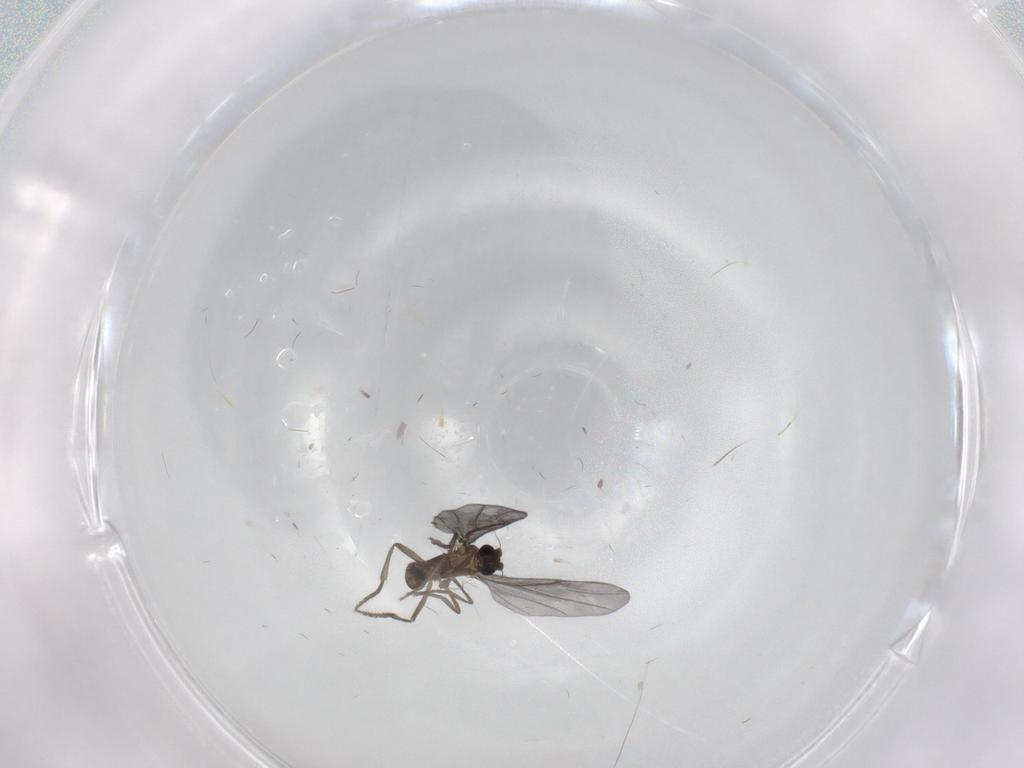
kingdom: Animalia
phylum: Arthropoda
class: Insecta
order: Diptera
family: Phoridae
